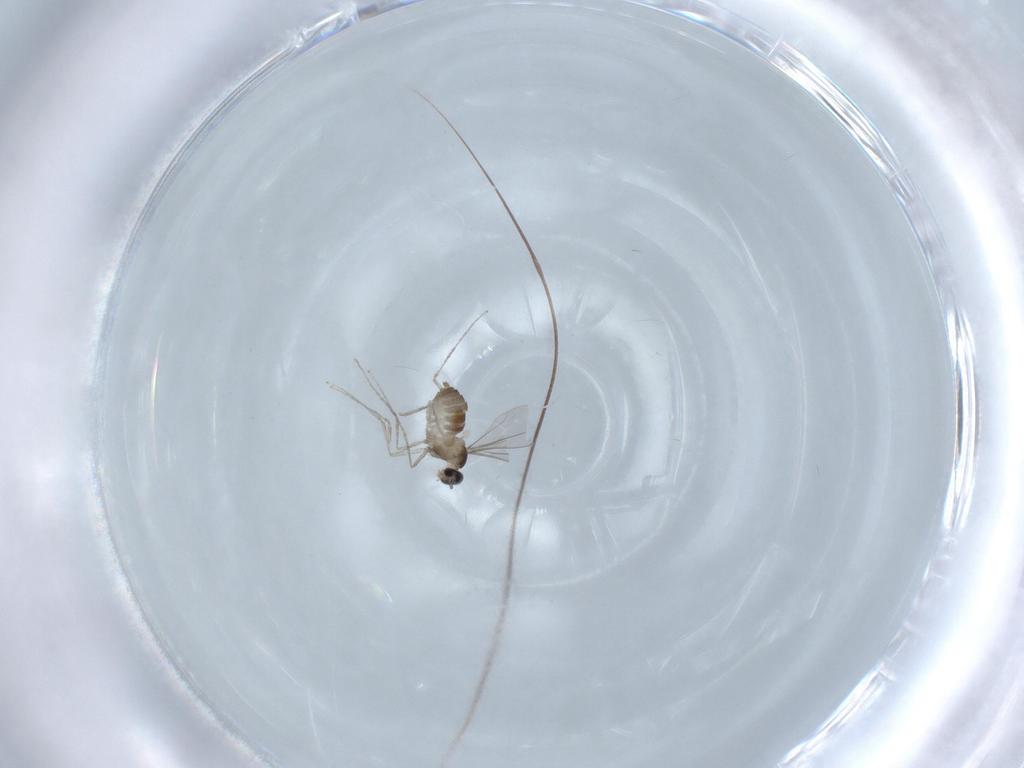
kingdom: Animalia
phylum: Arthropoda
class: Insecta
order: Diptera
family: Cecidomyiidae
